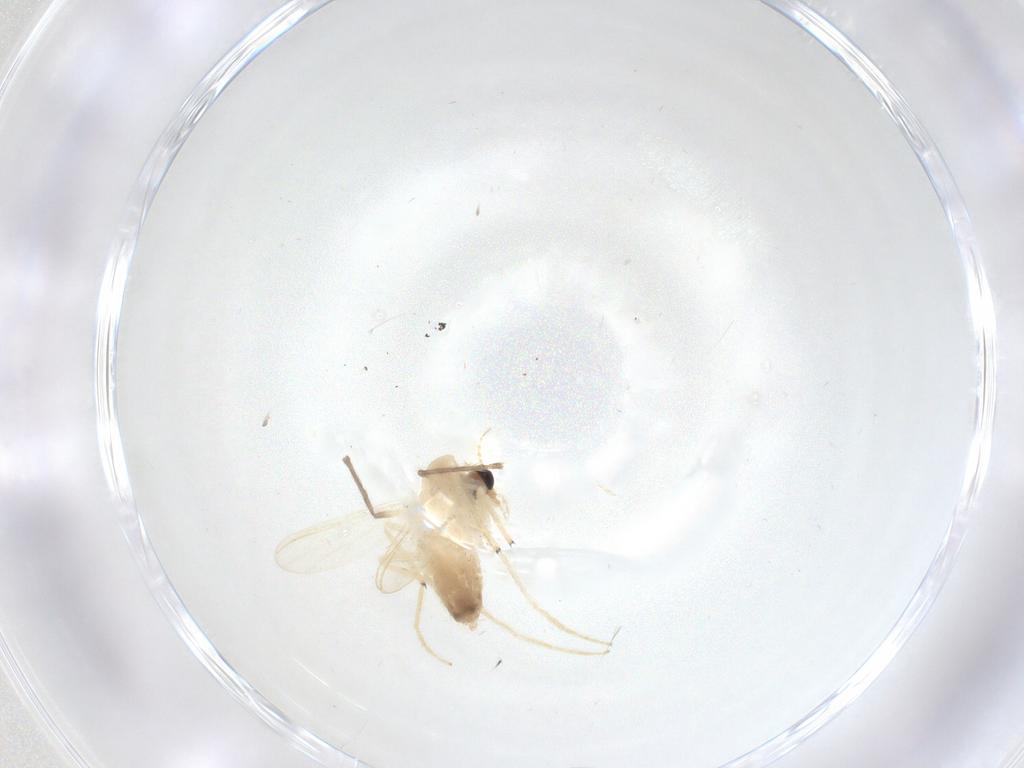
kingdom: Animalia
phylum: Arthropoda
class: Insecta
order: Diptera
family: Chironomidae
